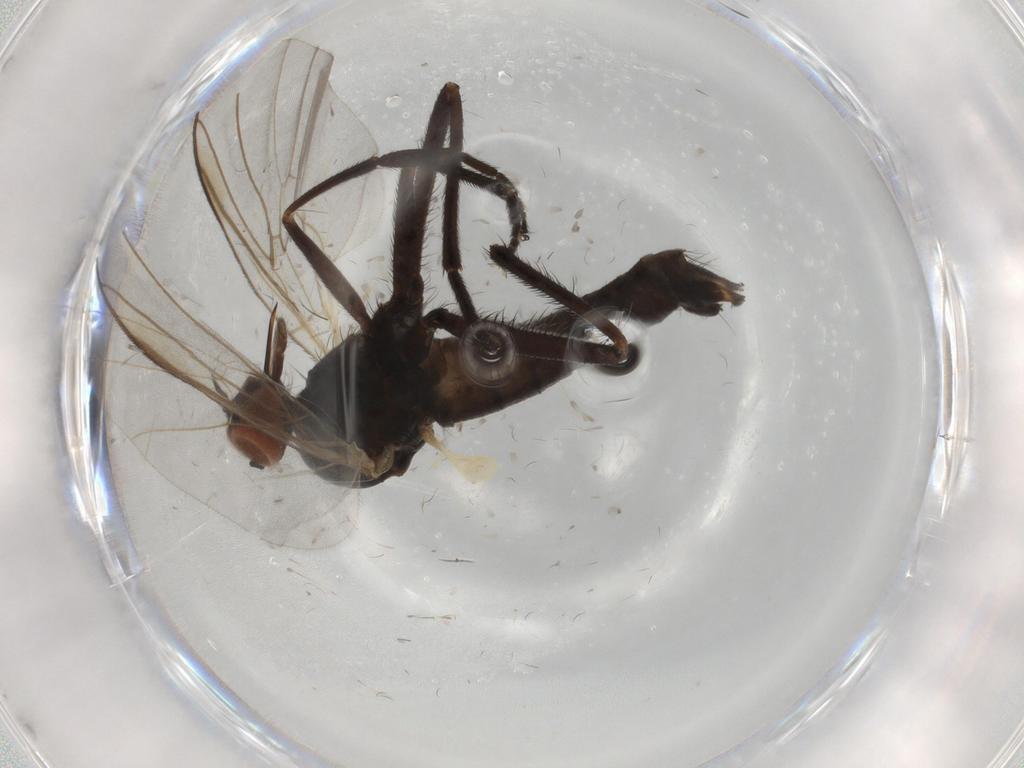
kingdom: Animalia
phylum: Arthropoda
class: Insecta
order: Diptera
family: Empididae
